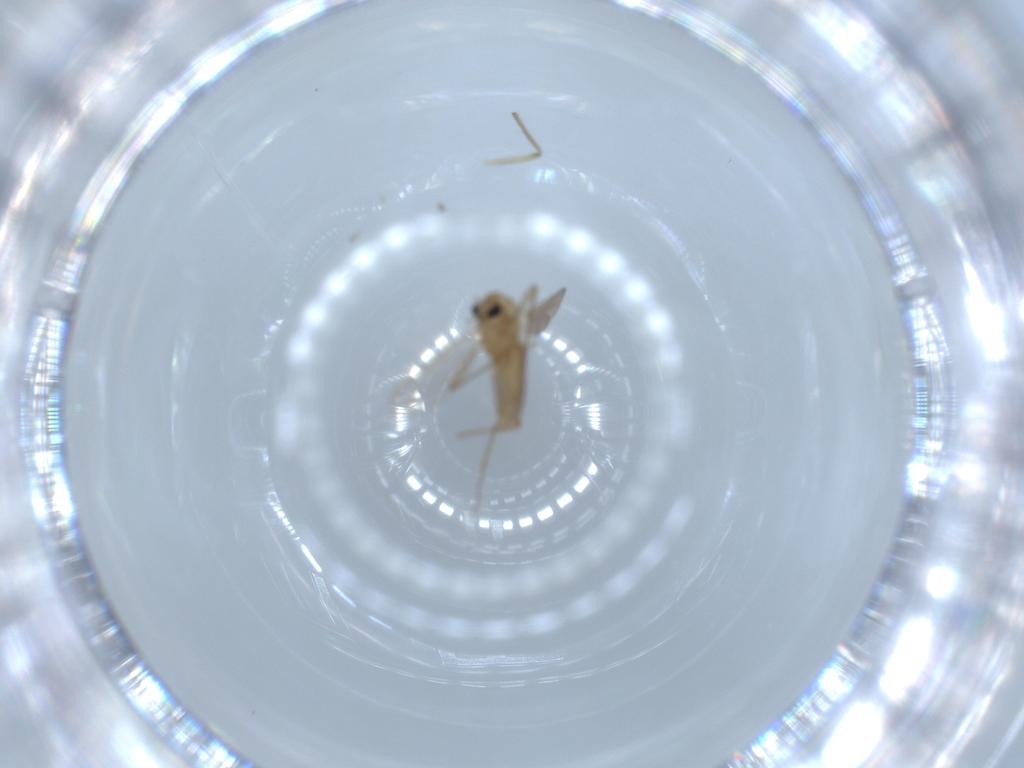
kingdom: Animalia
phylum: Arthropoda
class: Insecta
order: Diptera
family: Chironomidae
